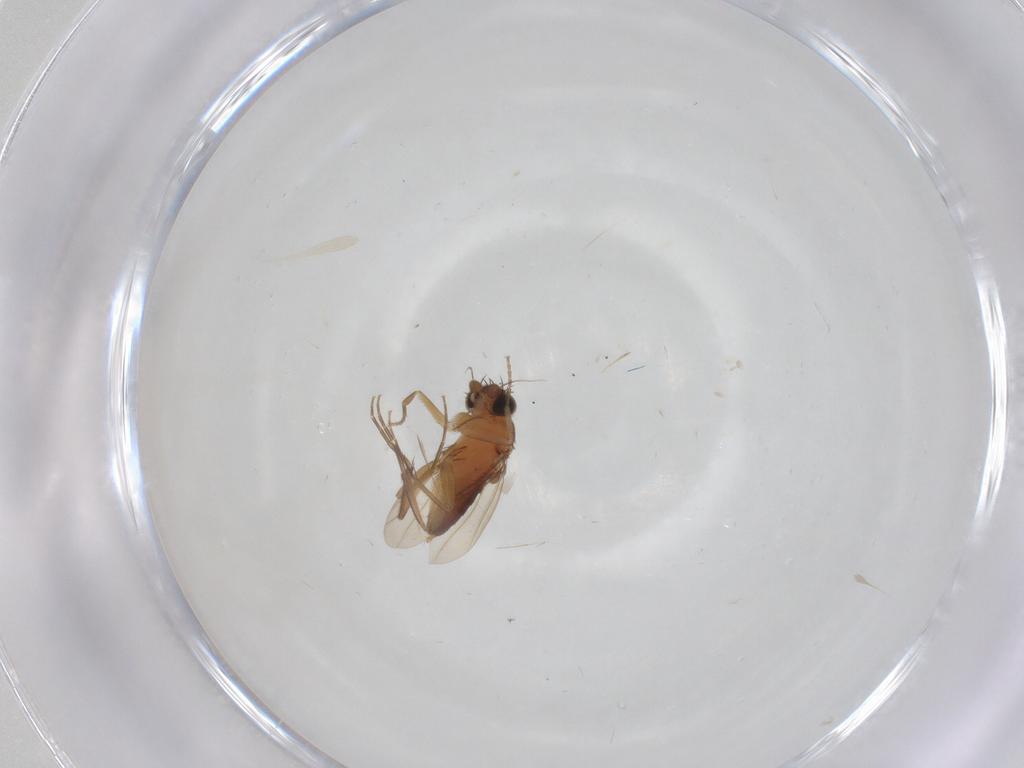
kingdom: Animalia
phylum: Arthropoda
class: Insecta
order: Diptera
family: Phoridae
